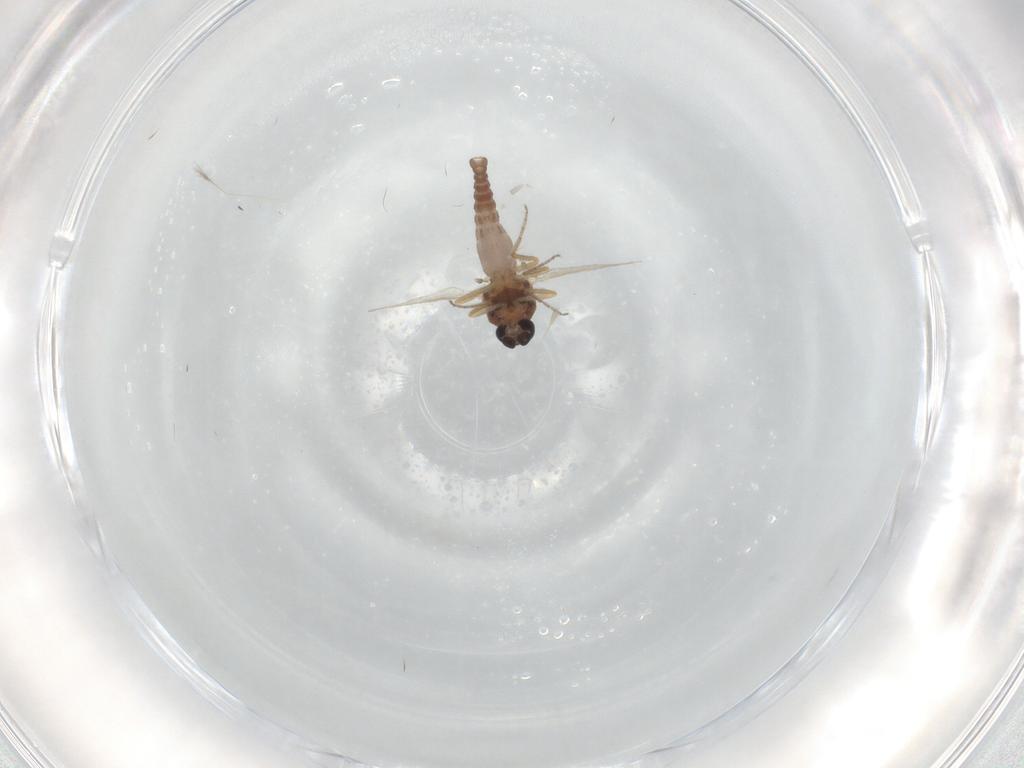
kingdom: Animalia
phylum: Arthropoda
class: Insecta
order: Diptera
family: Ceratopogonidae
